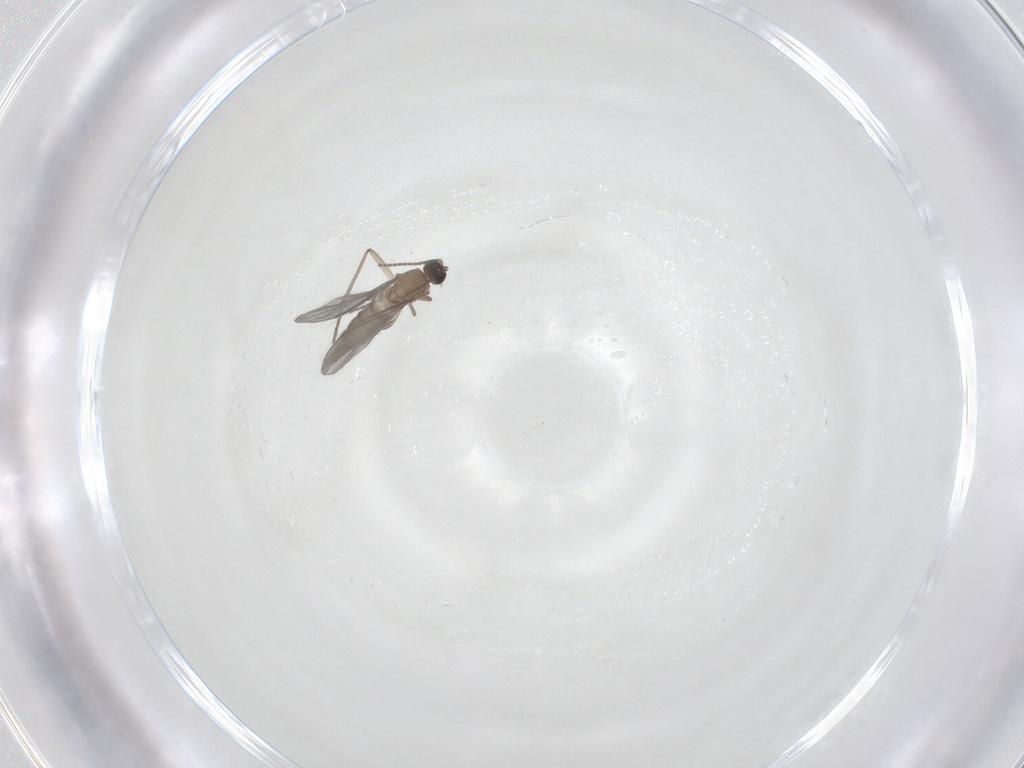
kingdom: Animalia
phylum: Arthropoda
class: Insecta
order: Diptera
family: Sciaridae
